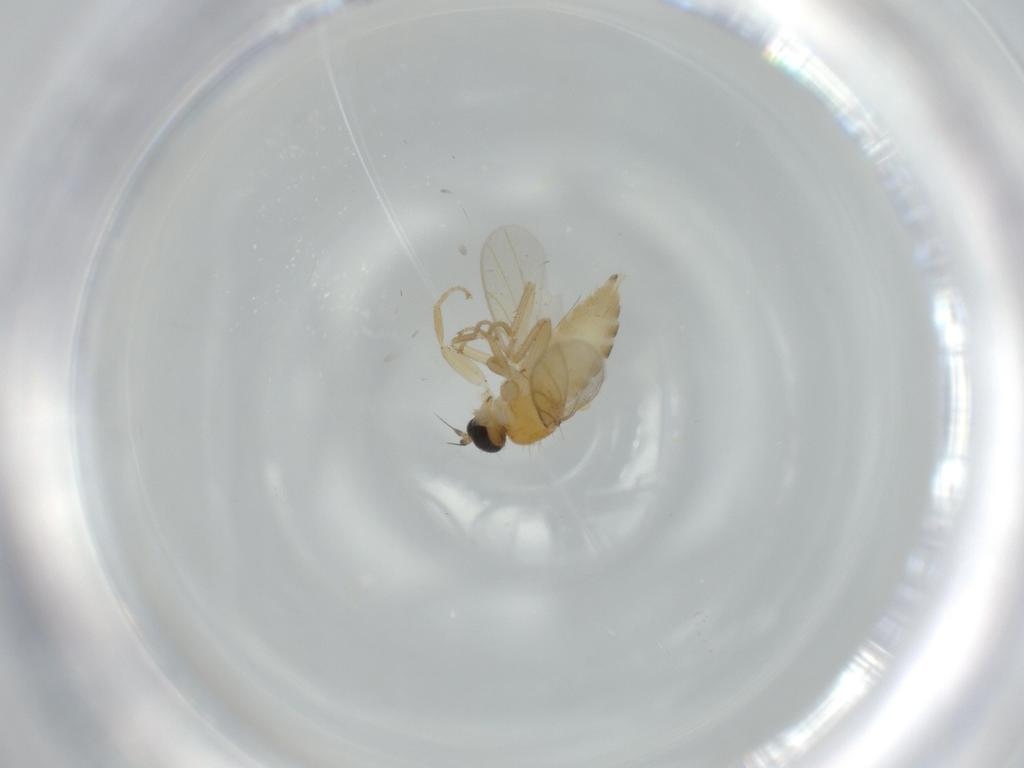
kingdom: Animalia
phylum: Arthropoda
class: Insecta
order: Diptera
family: Hybotidae
